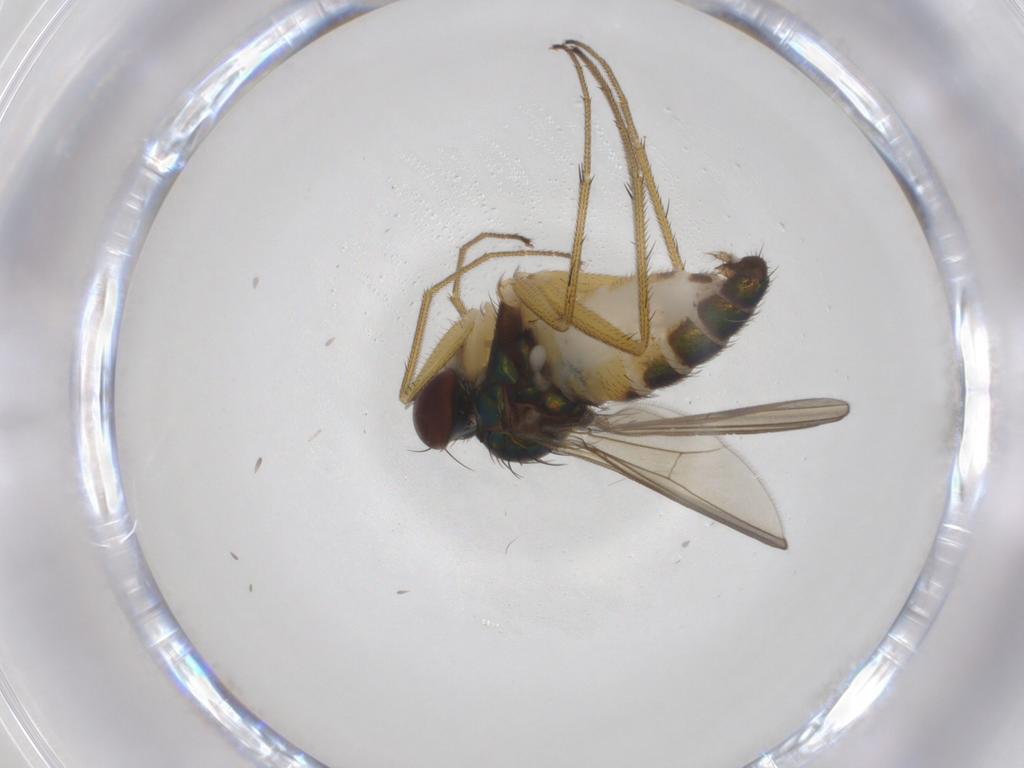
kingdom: Animalia
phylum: Arthropoda
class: Insecta
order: Diptera
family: Dolichopodidae
